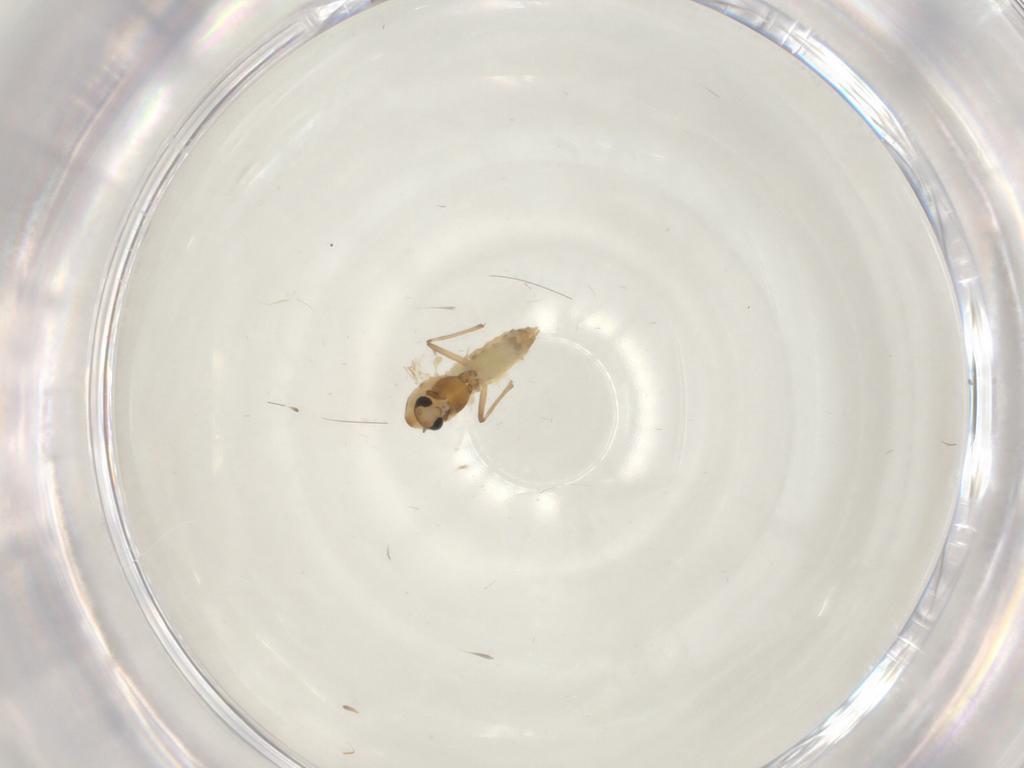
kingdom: Animalia
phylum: Arthropoda
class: Insecta
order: Diptera
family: Chironomidae
